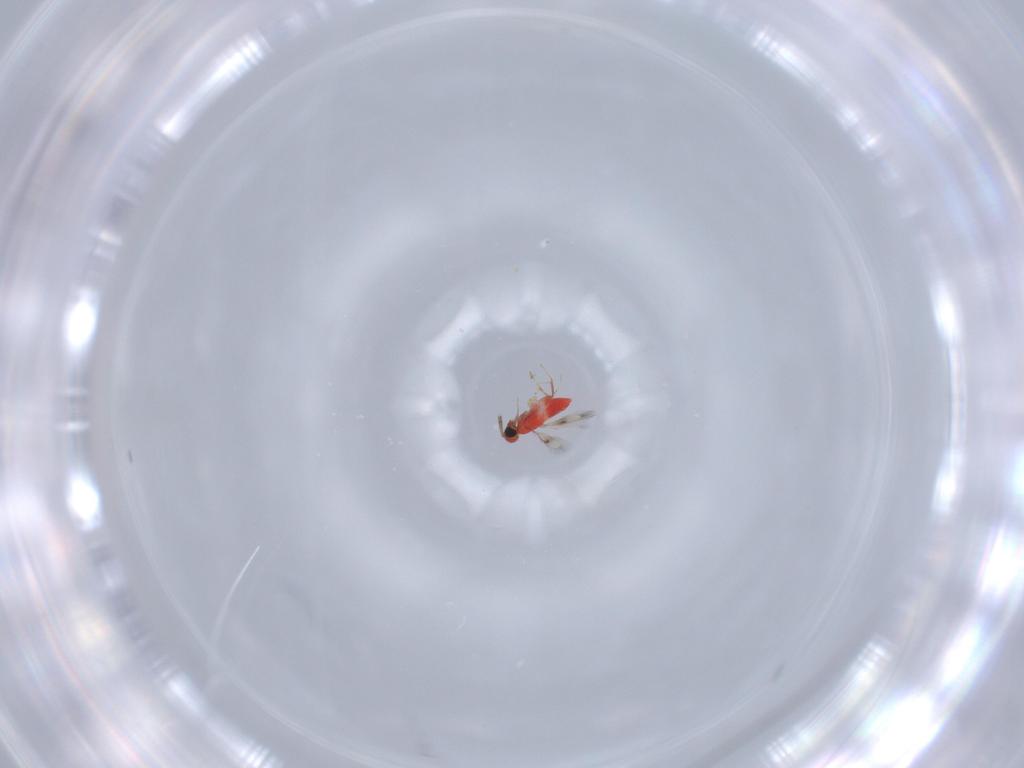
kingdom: Animalia
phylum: Arthropoda
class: Insecta
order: Hymenoptera
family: Trichogrammatidae
